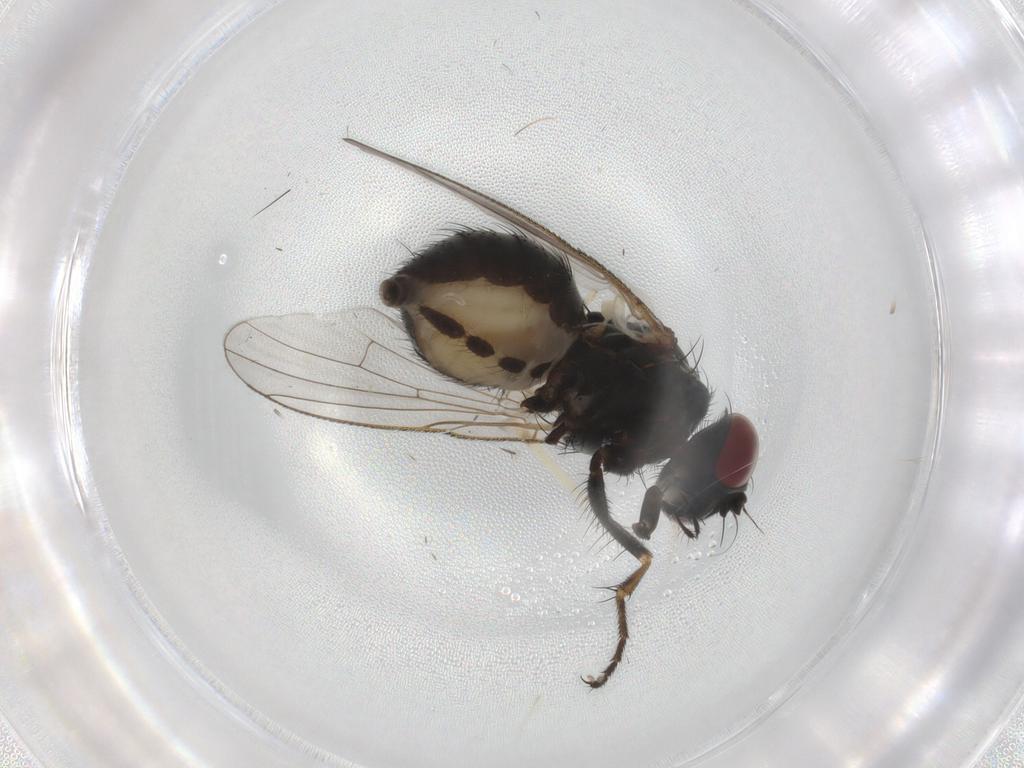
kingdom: Animalia
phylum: Arthropoda
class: Insecta
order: Diptera
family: Muscidae
